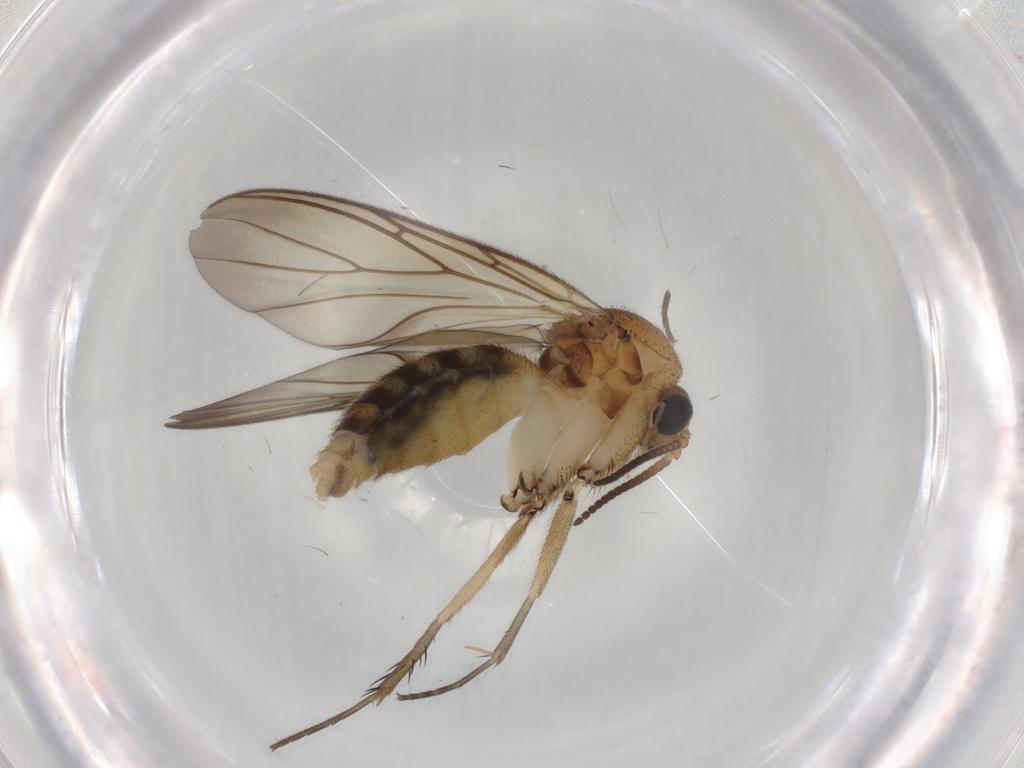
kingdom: Animalia
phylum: Arthropoda
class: Insecta
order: Diptera
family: Mycetophilidae
